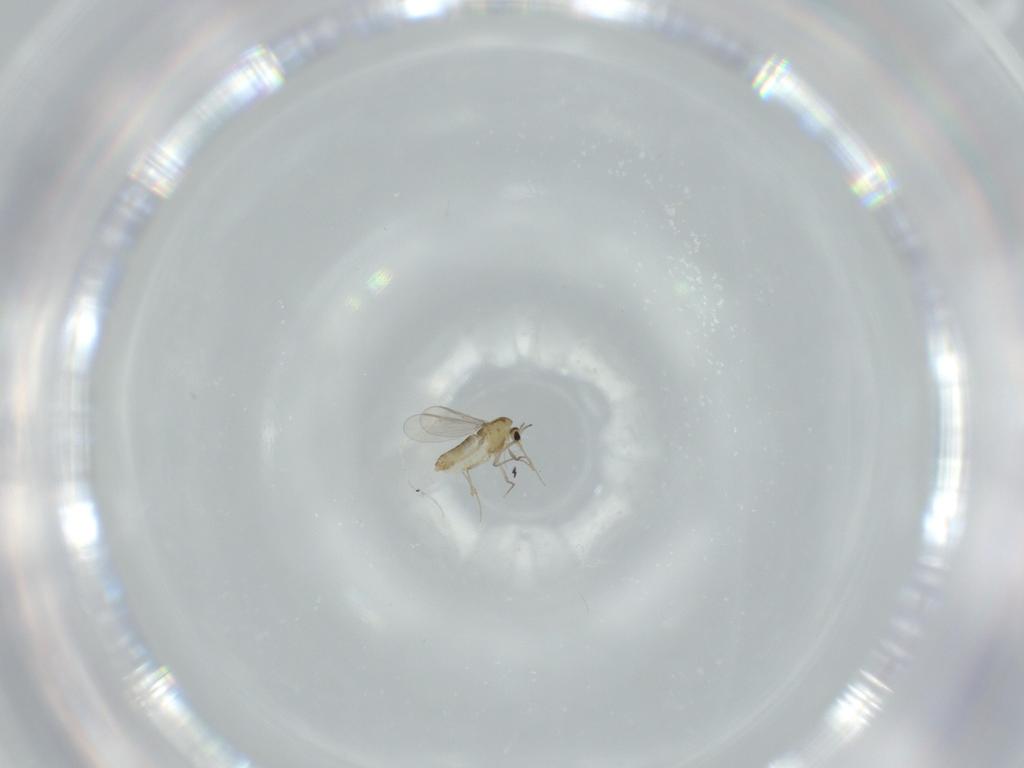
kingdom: Animalia
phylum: Arthropoda
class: Insecta
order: Diptera
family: Chironomidae
